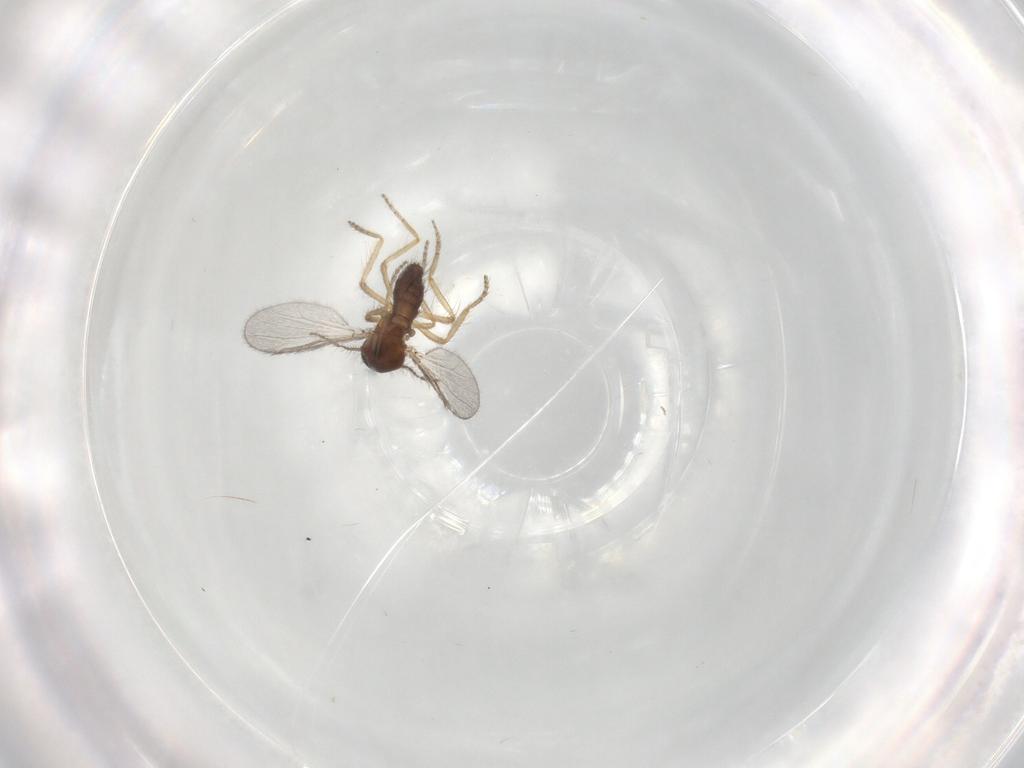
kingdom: Animalia
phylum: Arthropoda
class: Insecta
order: Diptera
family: Ceratopogonidae
